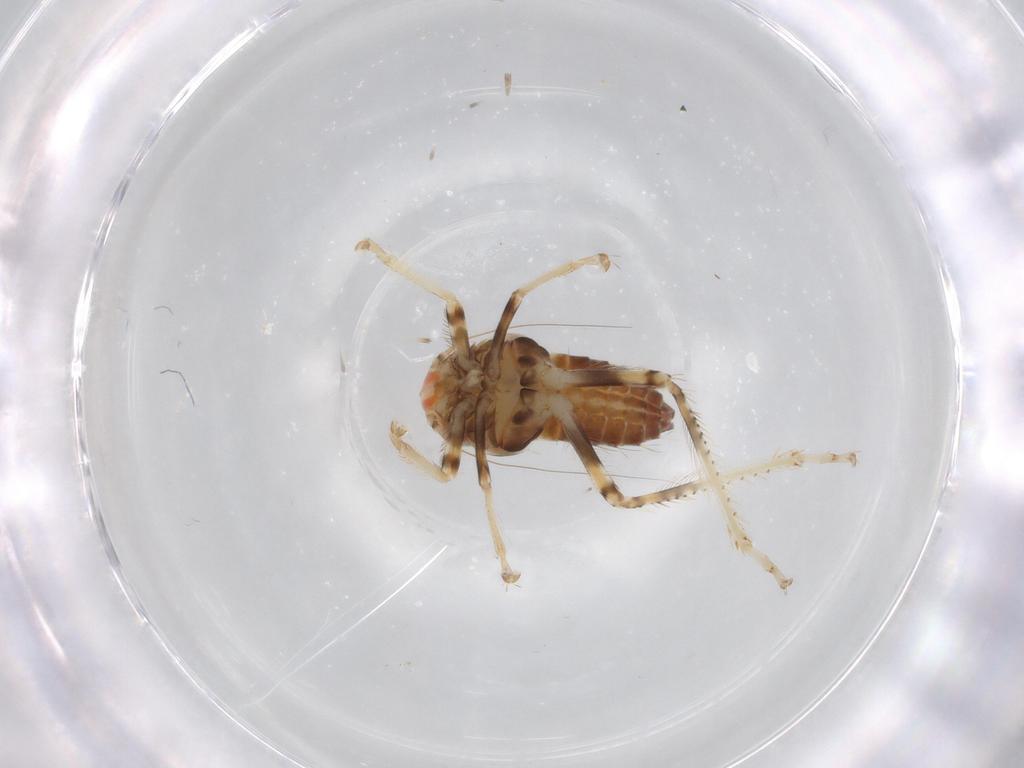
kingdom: Animalia
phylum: Arthropoda
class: Insecta
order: Hemiptera
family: Cicadellidae
